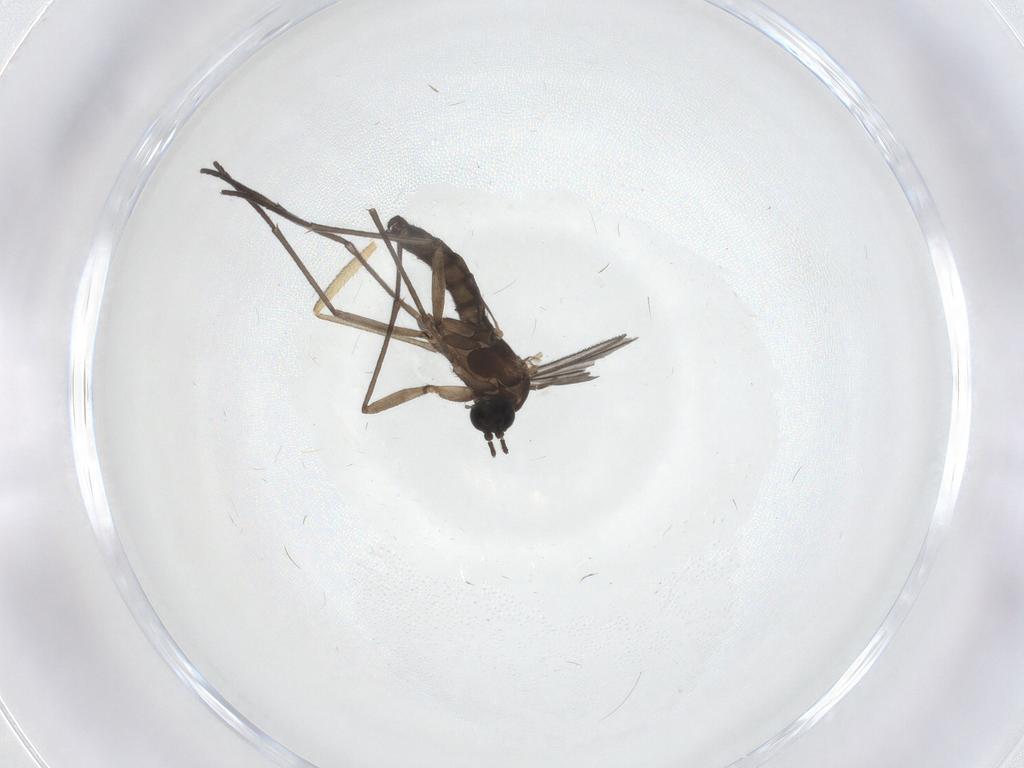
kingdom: Animalia
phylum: Arthropoda
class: Insecta
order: Diptera
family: Sciaridae
